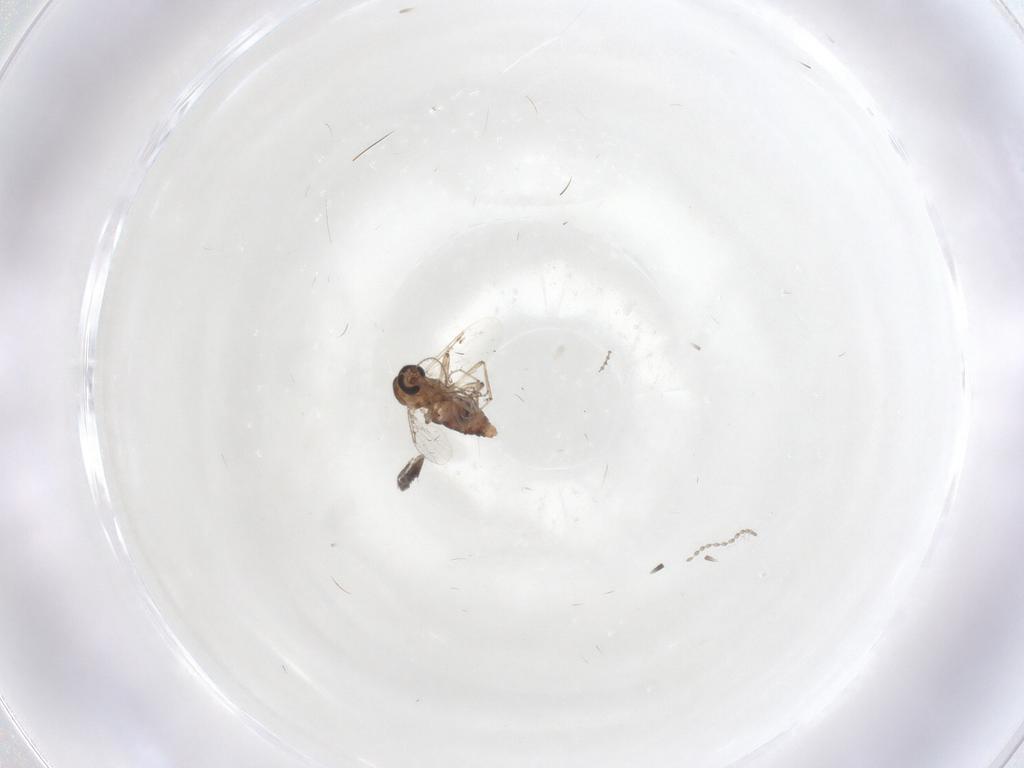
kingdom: Animalia
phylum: Arthropoda
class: Insecta
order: Diptera
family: Ceratopogonidae
